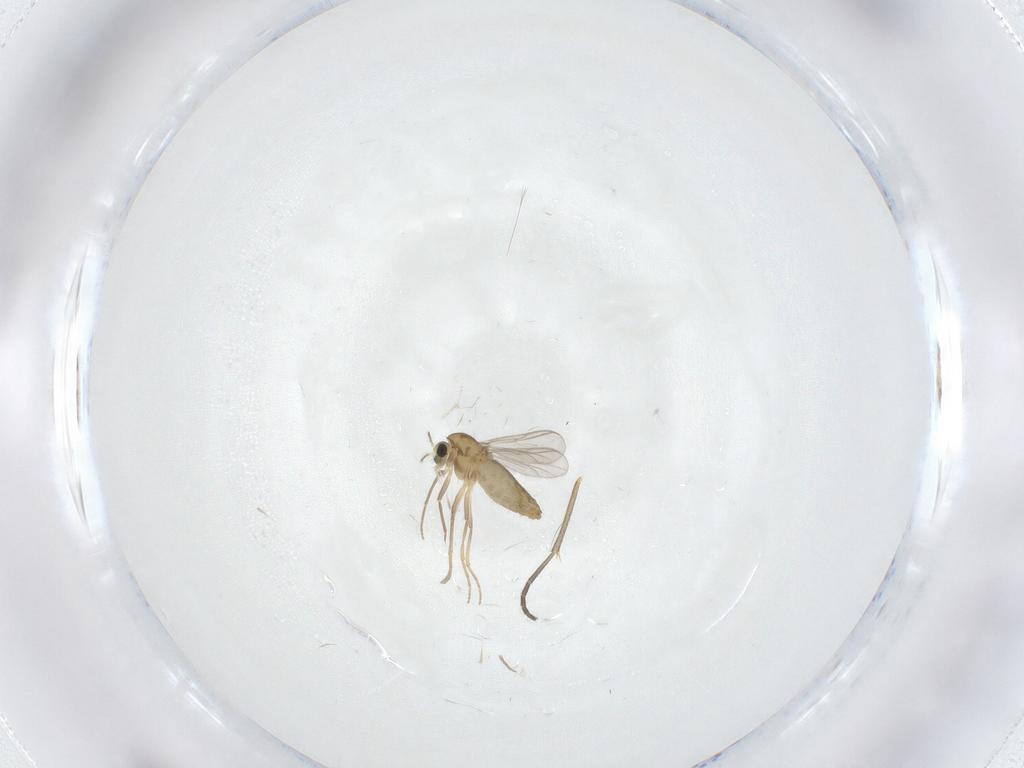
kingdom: Animalia
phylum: Arthropoda
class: Insecta
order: Diptera
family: Chironomidae
